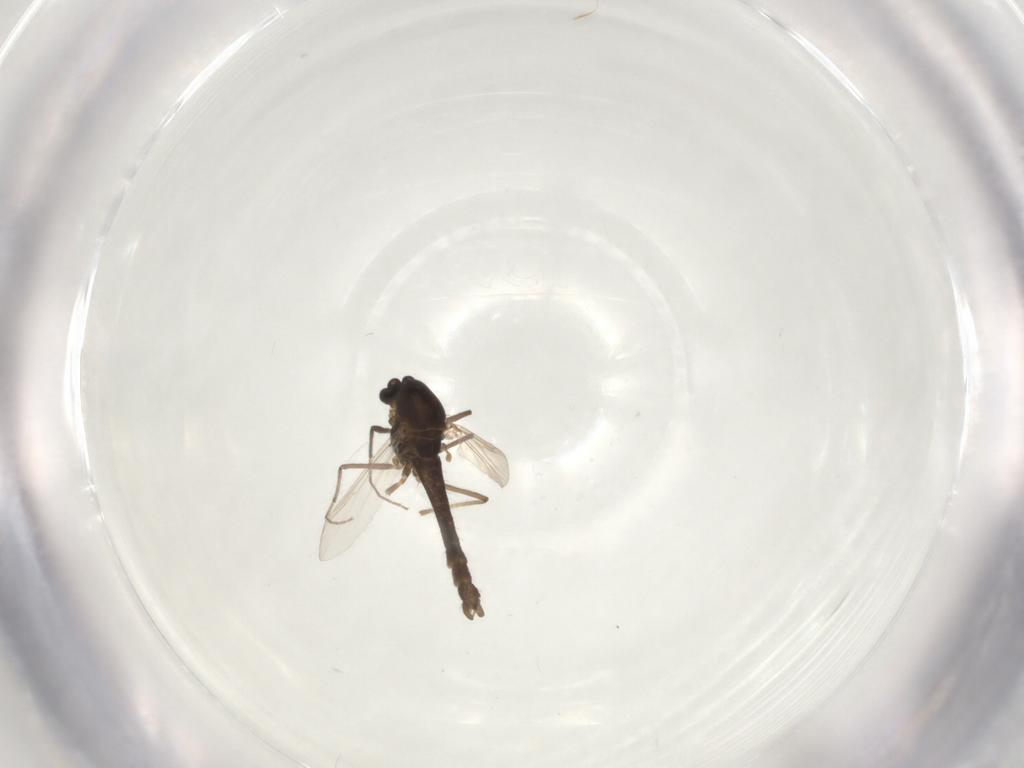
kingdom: Animalia
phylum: Arthropoda
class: Insecta
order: Diptera
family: Chironomidae
